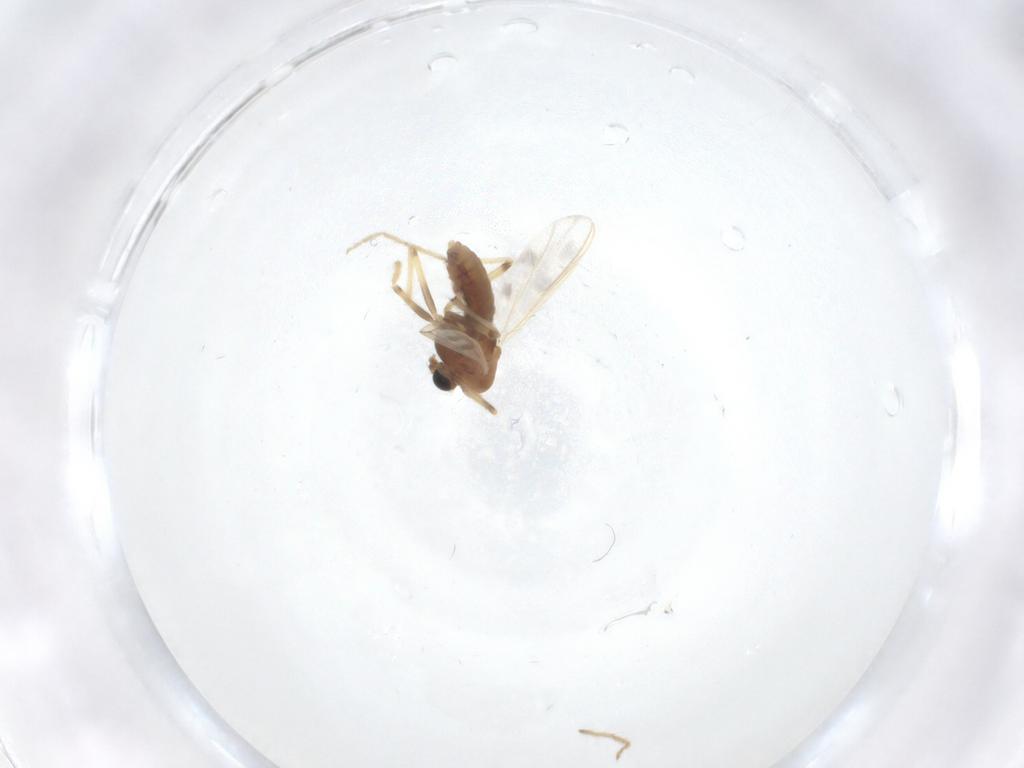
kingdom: Animalia
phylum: Arthropoda
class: Insecta
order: Diptera
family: Chironomidae
